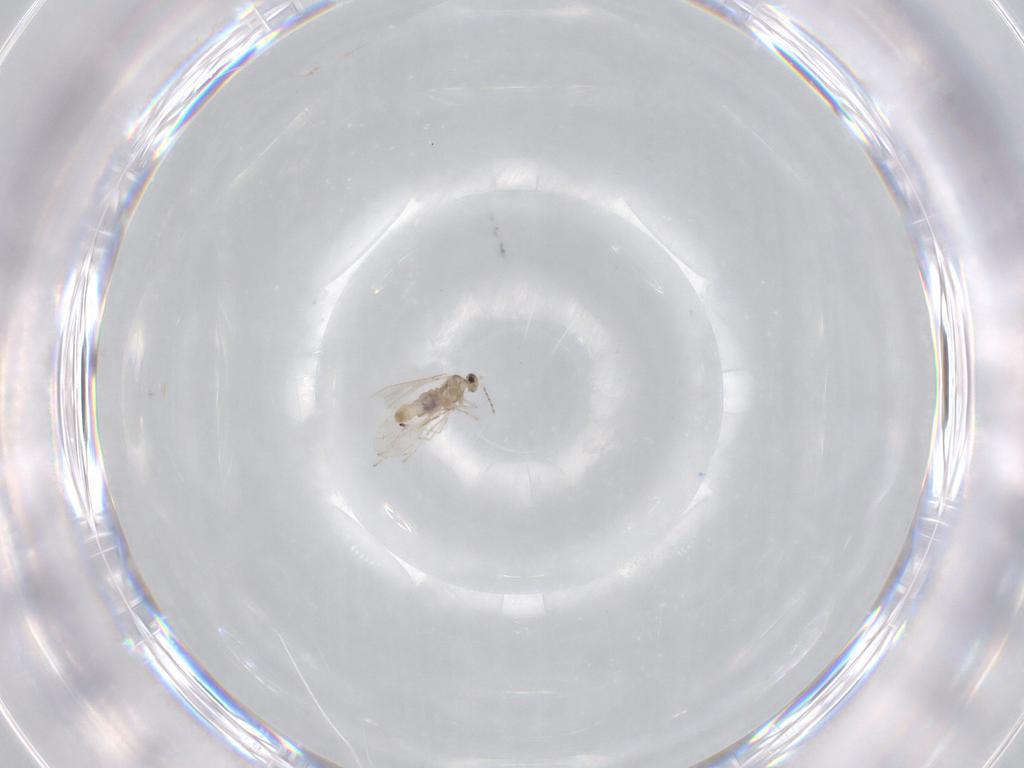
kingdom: Animalia
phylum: Arthropoda
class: Insecta
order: Diptera
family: Cecidomyiidae
